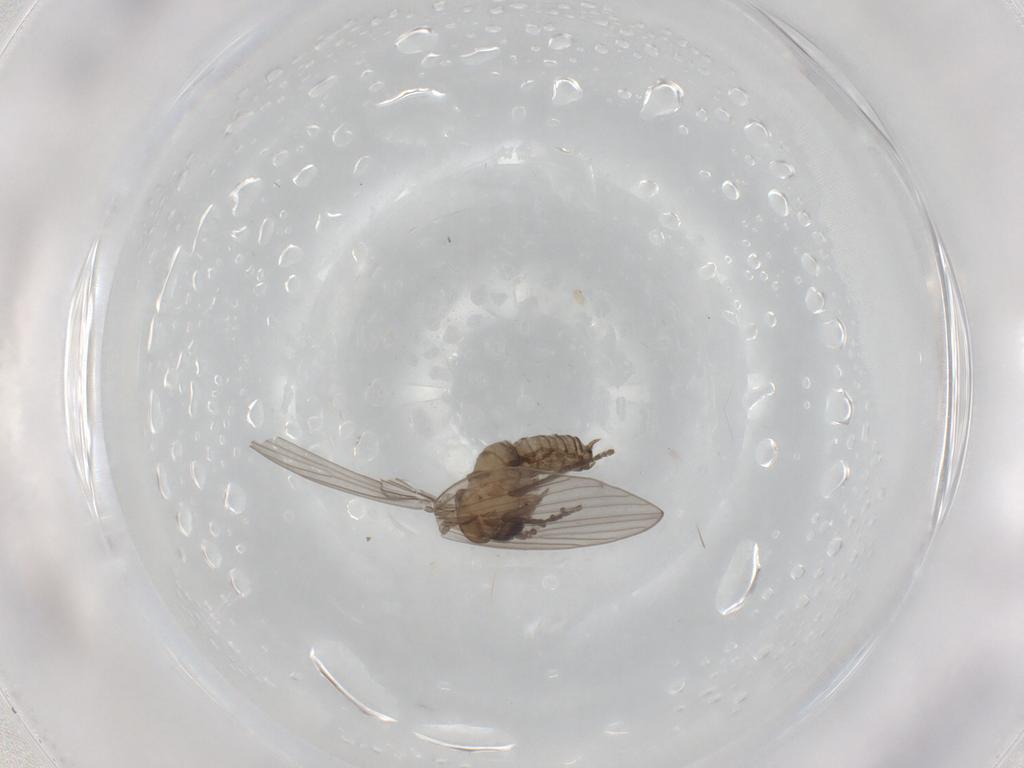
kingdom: Animalia
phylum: Arthropoda
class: Insecta
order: Diptera
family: Psychodidae
